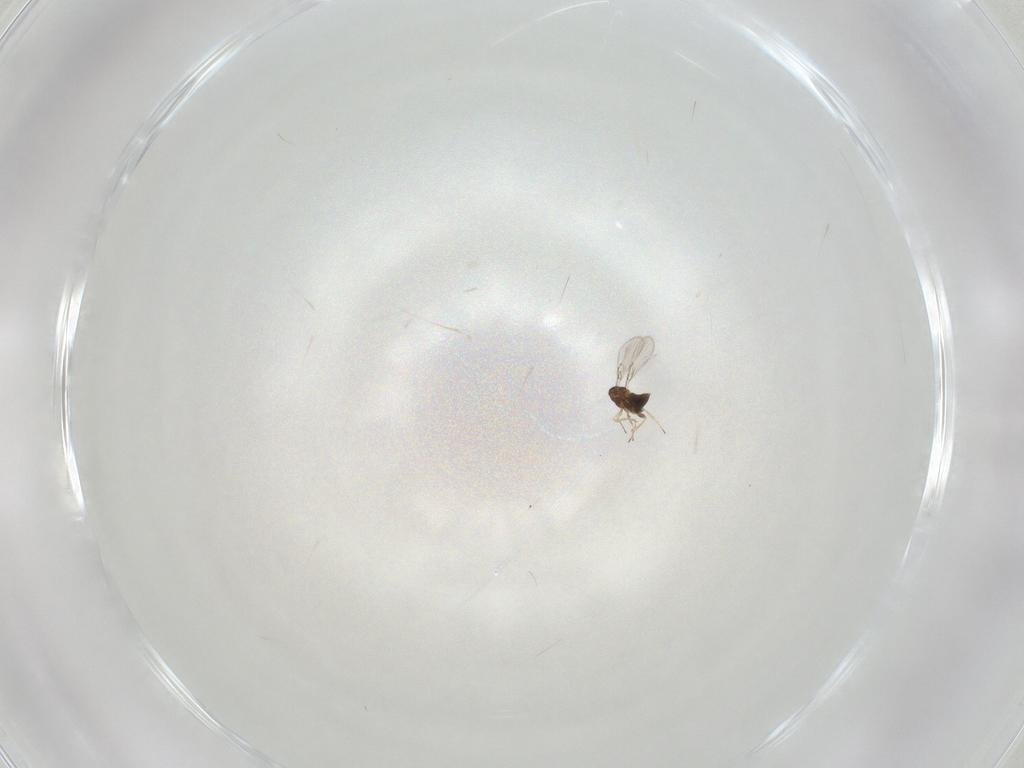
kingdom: Animalia
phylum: Arthropoda
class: Insecta
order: Hymenoptera
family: Trichogrammatidae
